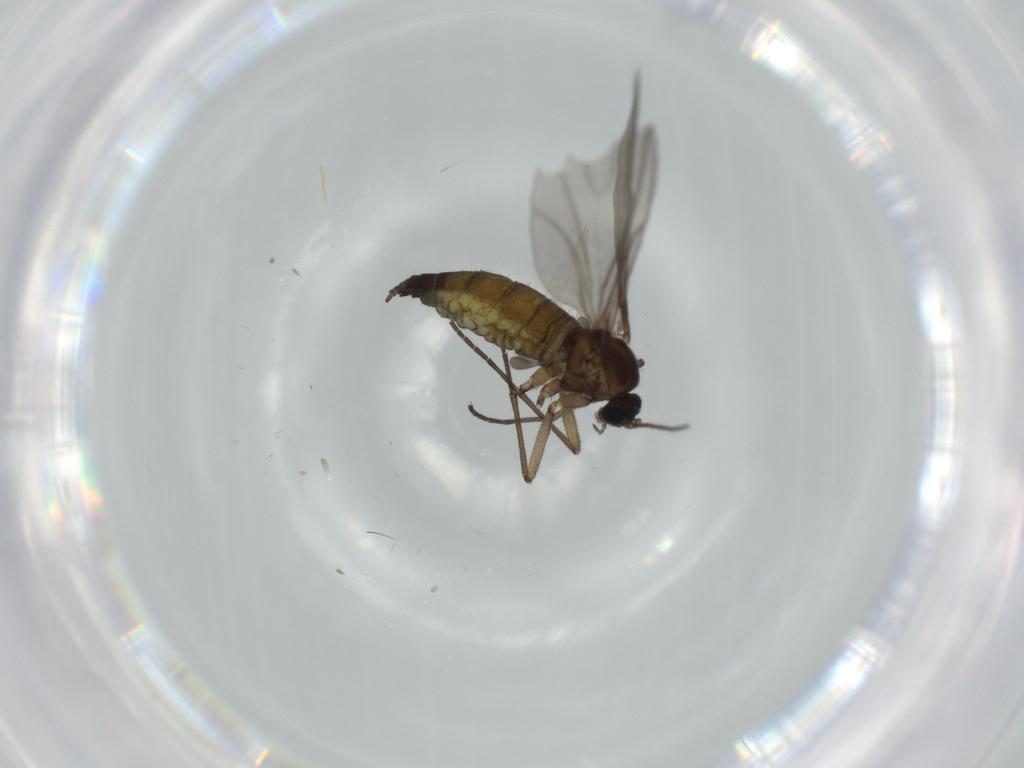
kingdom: Animalia
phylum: Arthropoda
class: Insecta
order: Diptera
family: Sciaridae
